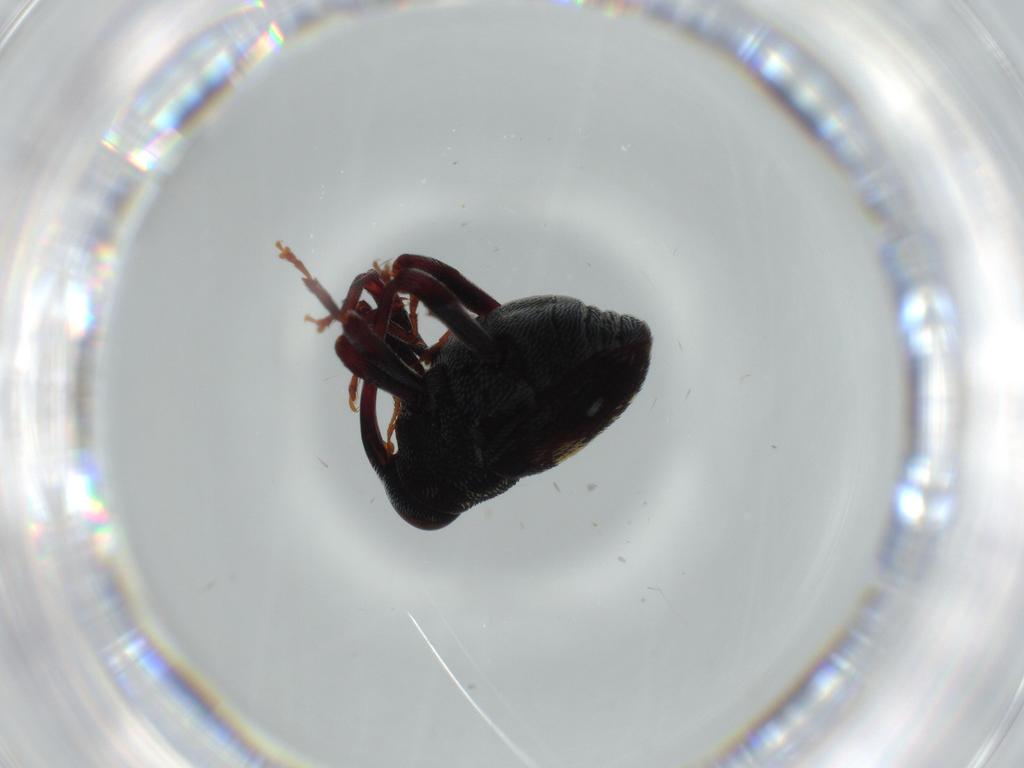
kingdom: Animalia
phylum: Arthropoda
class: Insecta
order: Coleoptera
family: Curculionidae
